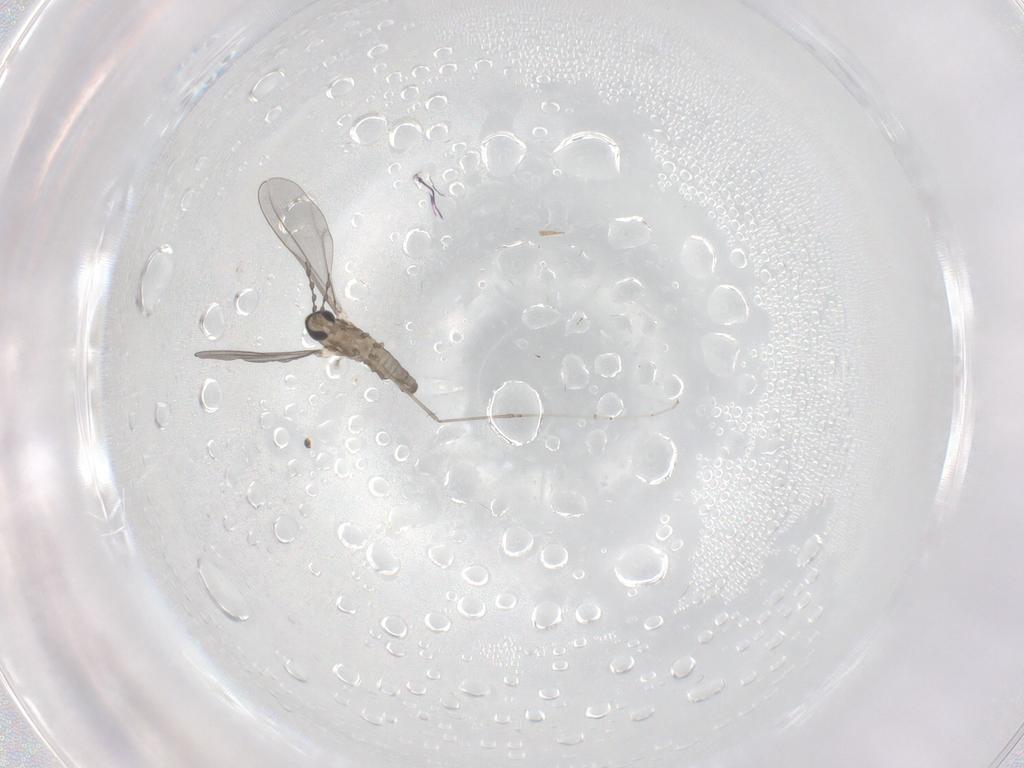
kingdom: Animalia
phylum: Arthropoda
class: Insecta
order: Diptera
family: Cecidomyiidae
